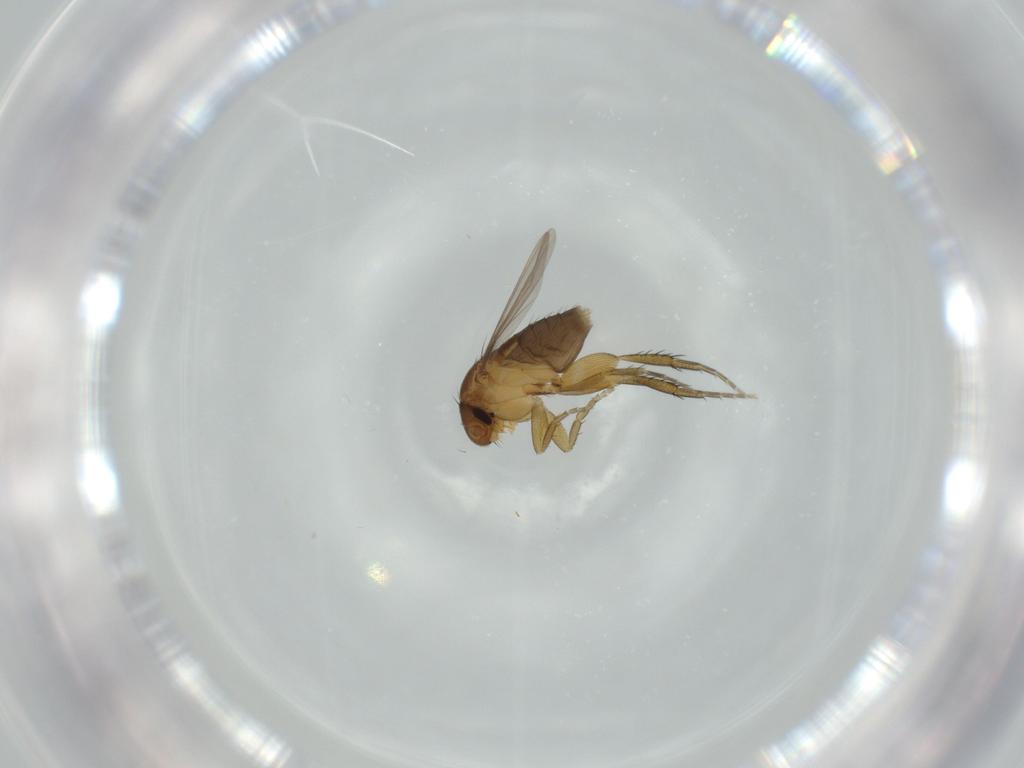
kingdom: Animalia
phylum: Arthropoda
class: Insecta
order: Diptera
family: Phoridae
